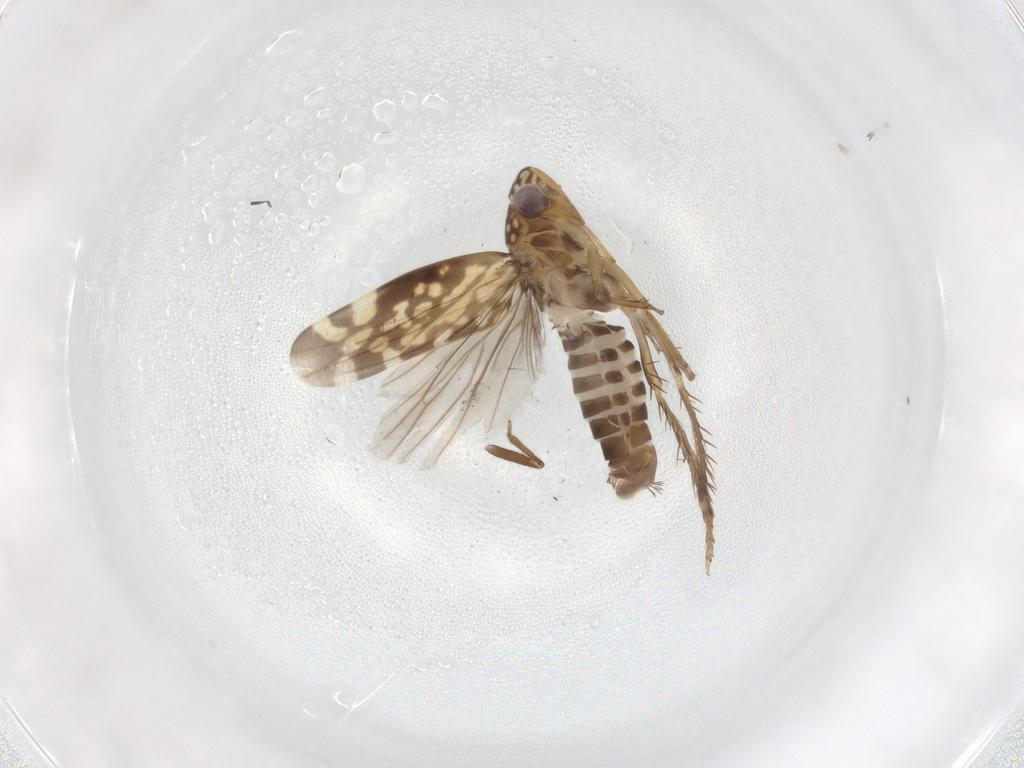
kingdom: Animalia
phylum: Arthropoda
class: Insecta
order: Hemiptera
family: Cicadellidae
